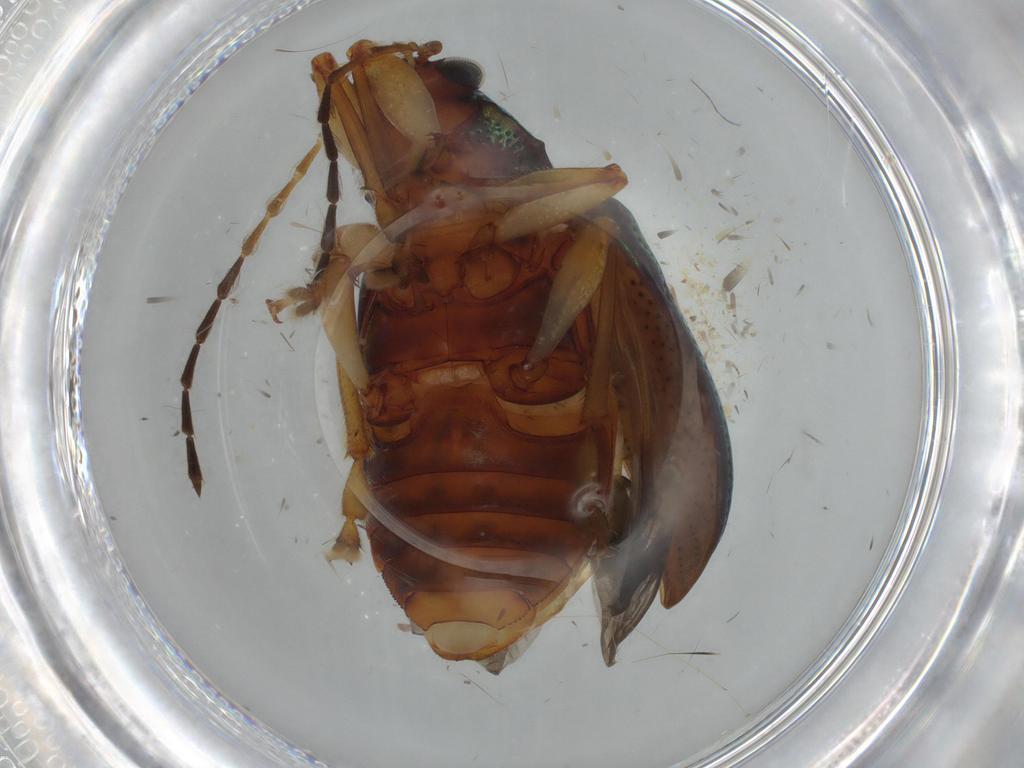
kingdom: Animalia
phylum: Arthropoda
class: Insecta
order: Coleoptera
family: Chrysomelidae
